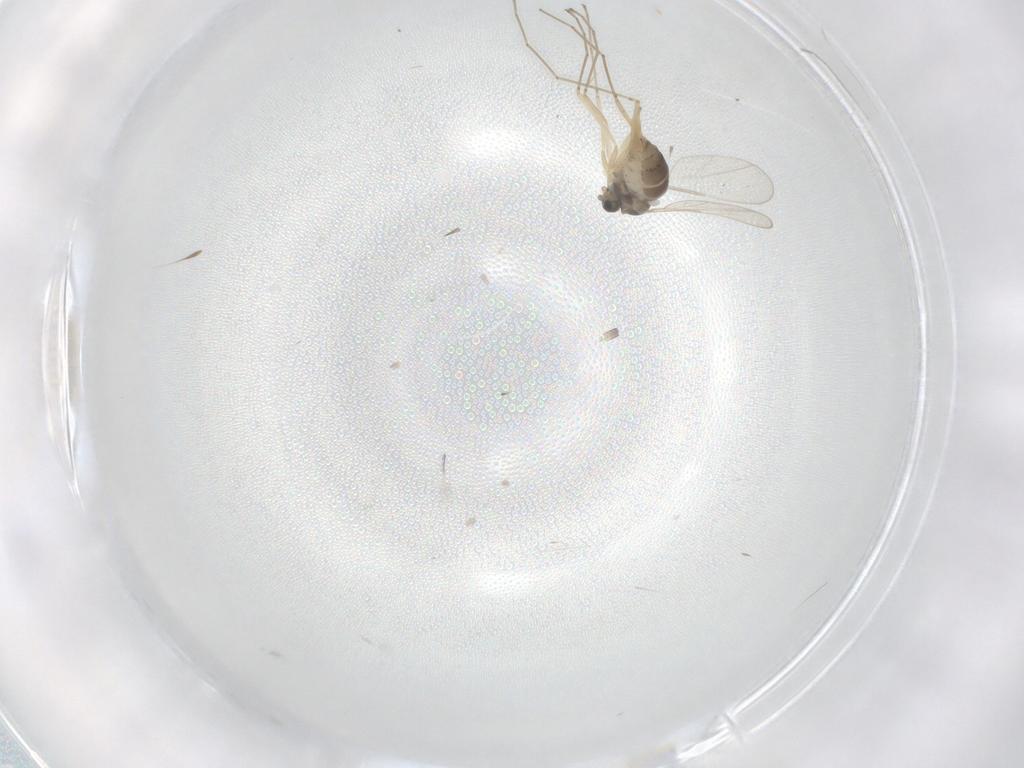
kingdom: Animalia
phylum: Arthropoda
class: Insecta
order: Diptera
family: Cecidomyiidae
